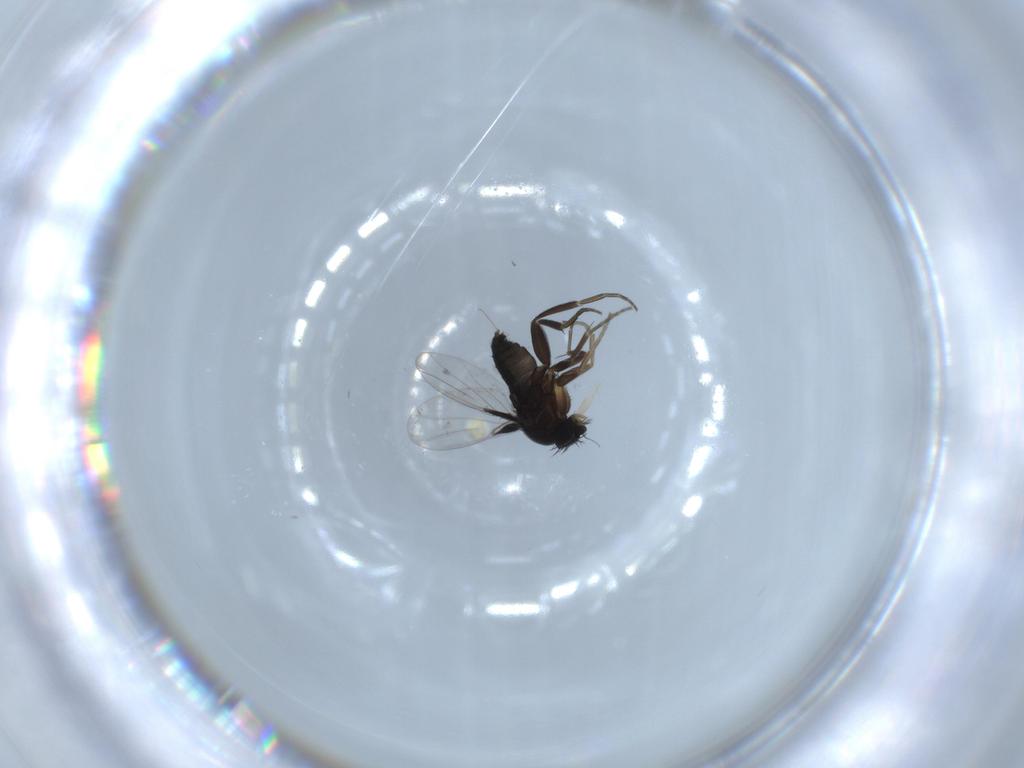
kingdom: Animalia
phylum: Arthropoda
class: Insecta
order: Diptera
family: Phoridae
